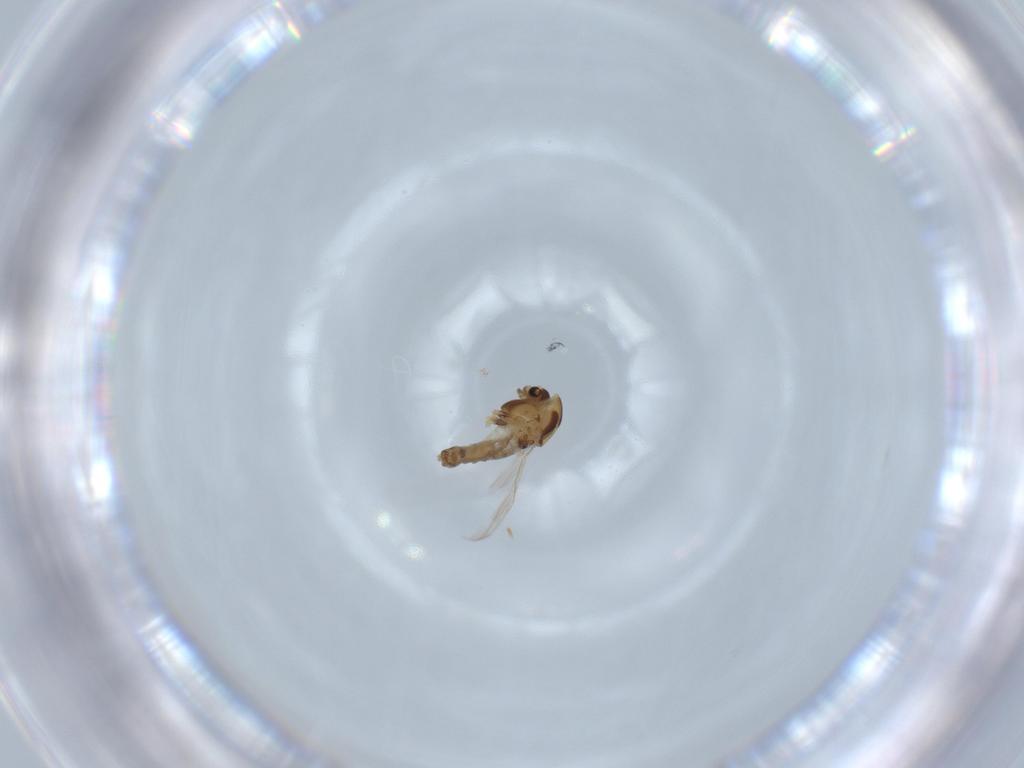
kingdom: Animalia
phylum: Arthropoda
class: Insecta
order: Diptera
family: Chironomidae
